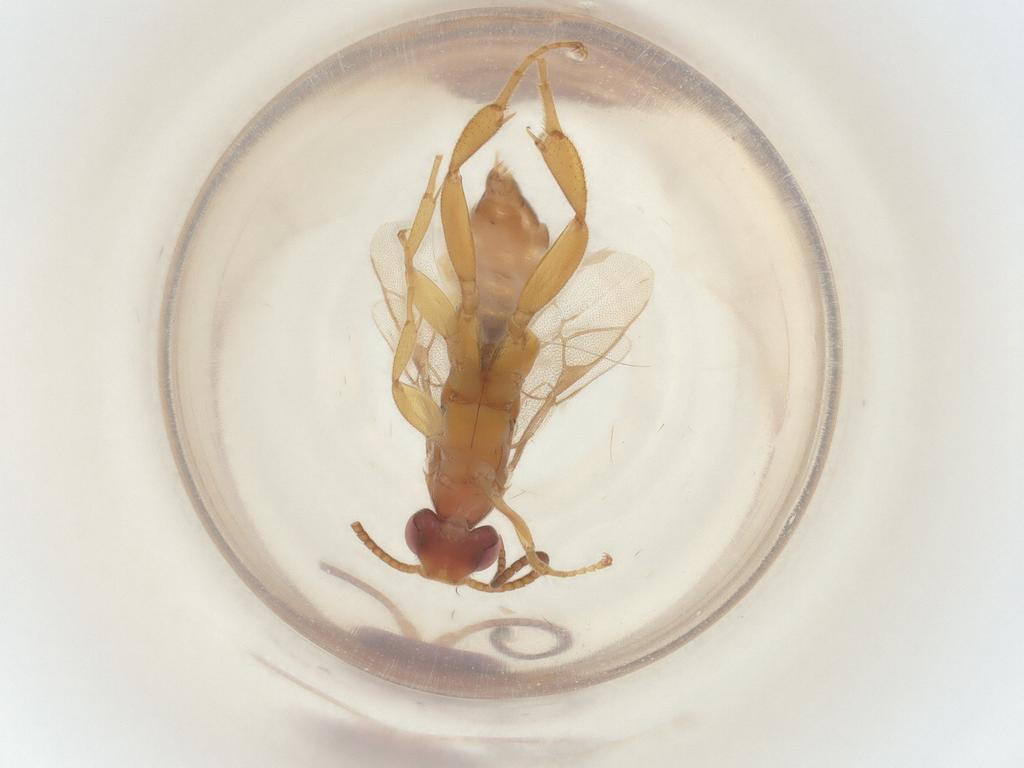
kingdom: Animalia
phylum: Arthropoda
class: Insecta
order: Hymenoptera
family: Ichneumonidae
